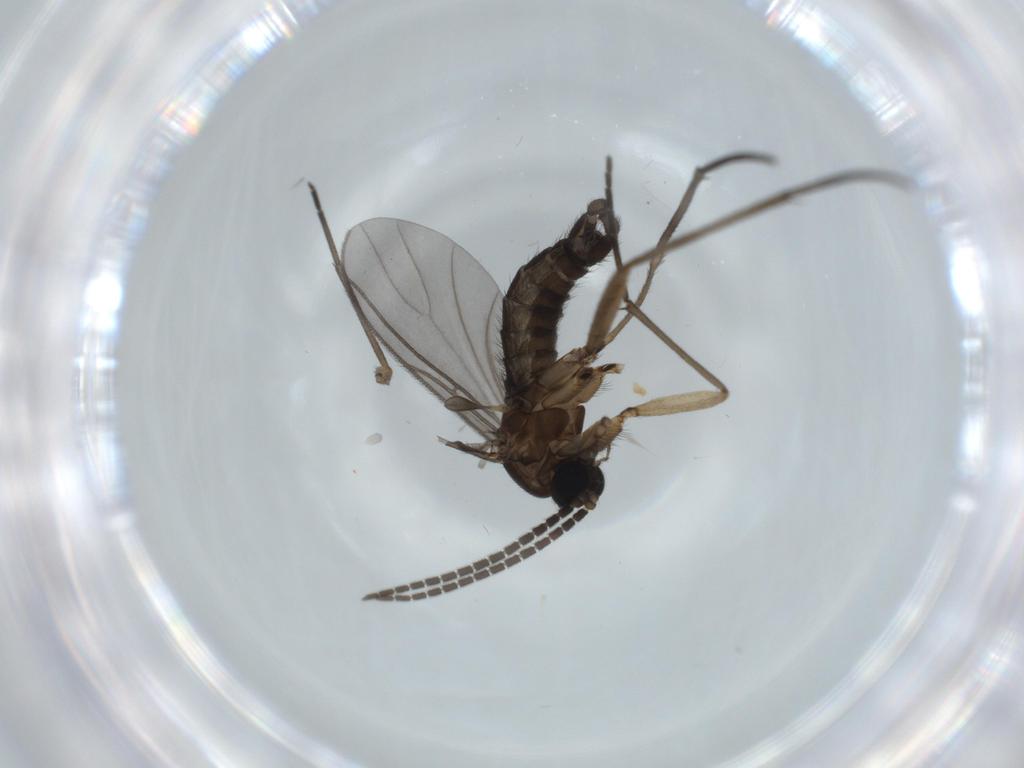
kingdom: Animalia
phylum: Arthropoda
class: Insecta
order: Diptera
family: Sciaridae
